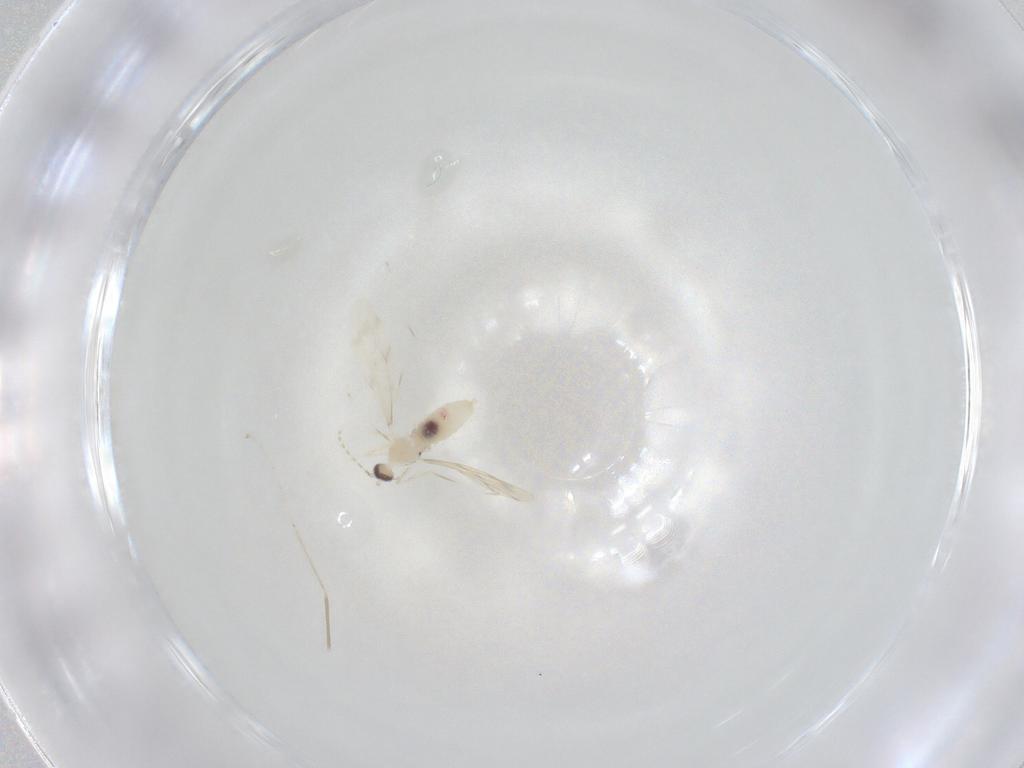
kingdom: Animalia
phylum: Arthropoda
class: Insecta
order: Diptera
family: Cecidomyiidae
